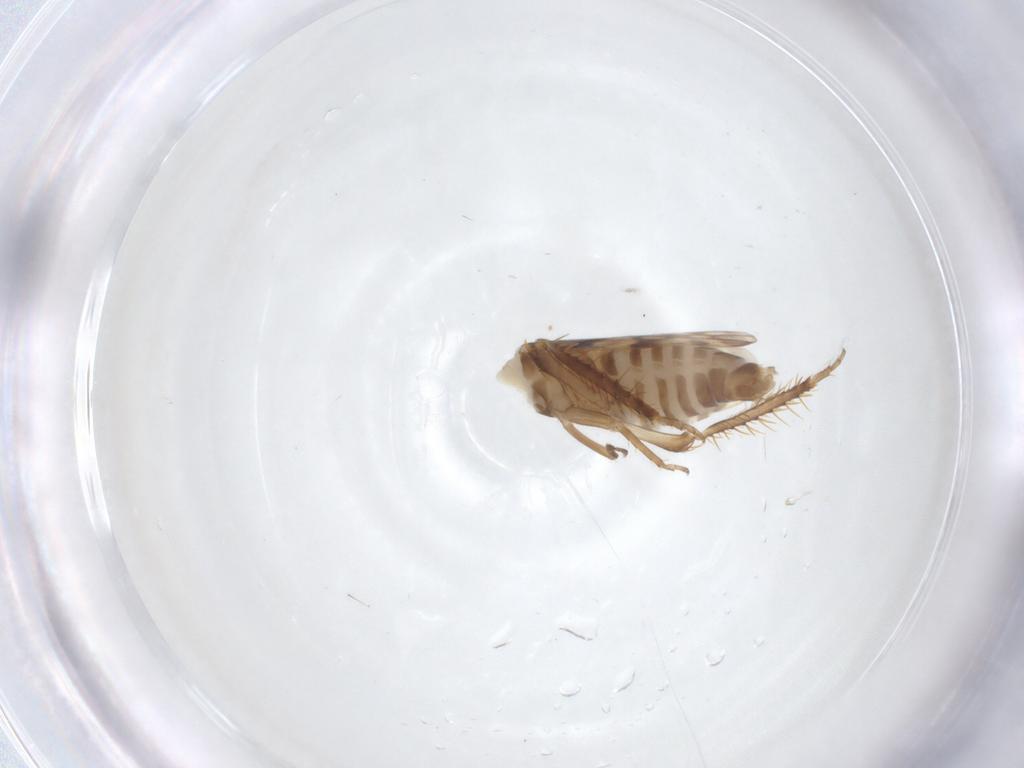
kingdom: Animalia
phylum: Arthropoda
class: Insecta
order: Hemiptera
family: Cicadellidae
